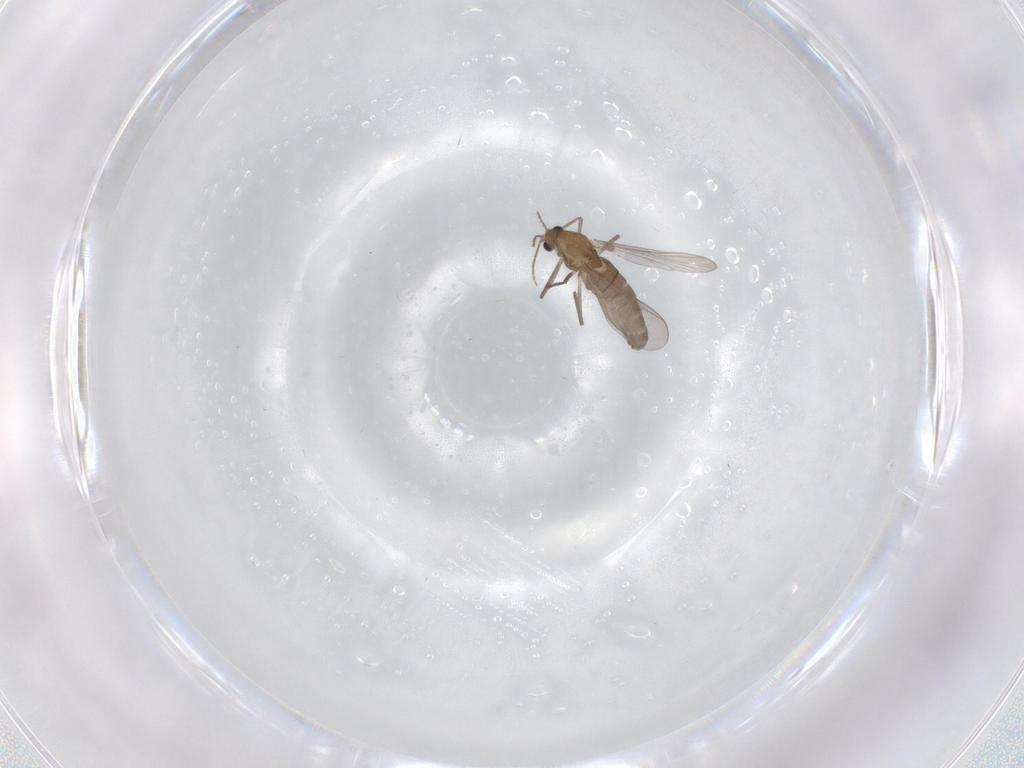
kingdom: Animalia
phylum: Arthropoda
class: Insecta
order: Diptera
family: Chironomidae
